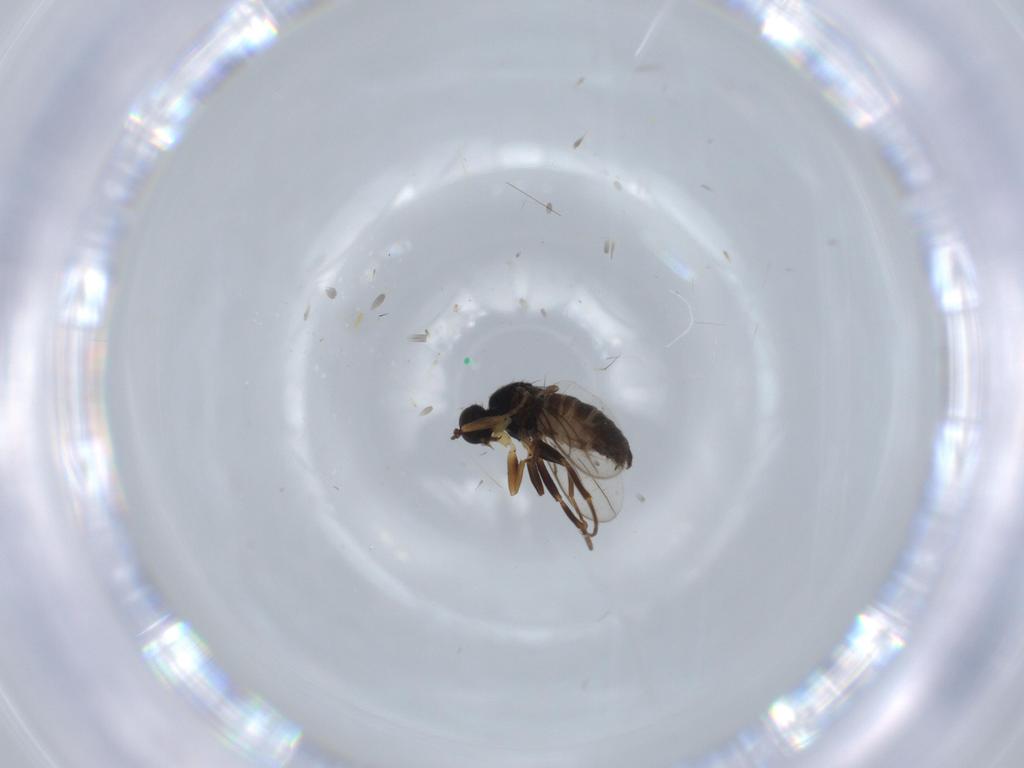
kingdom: Animalia
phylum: Arthropoda
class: Insecta
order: Diptera
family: Hybotidae
